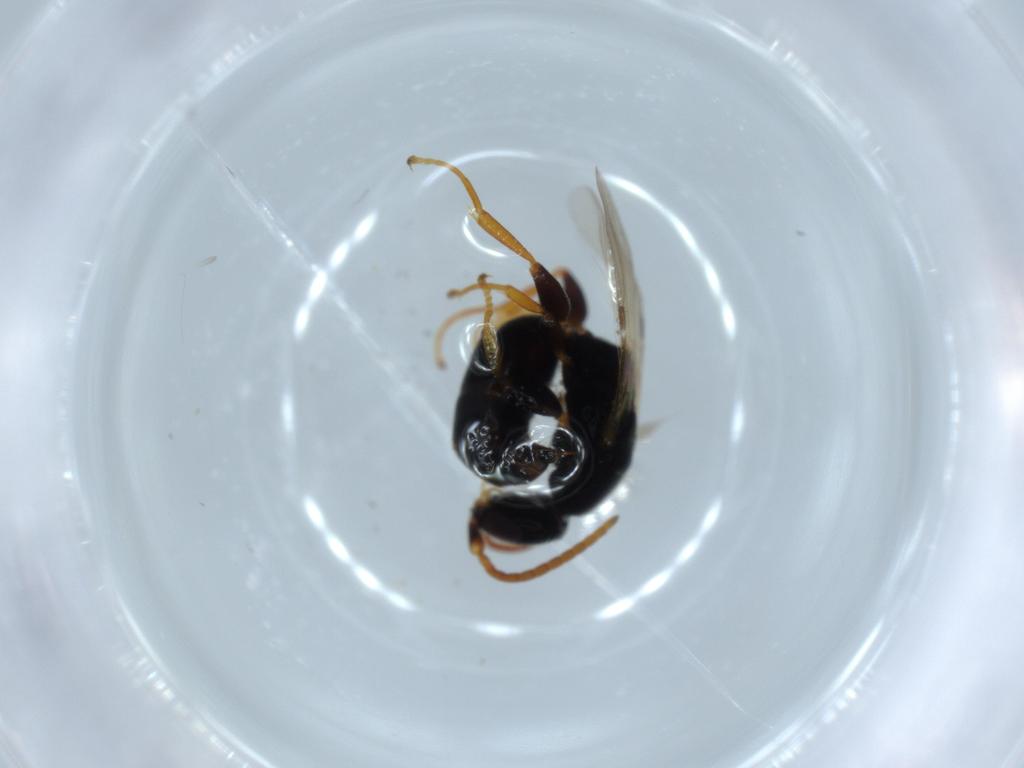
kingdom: Animalia
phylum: Arthropoda
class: Insecta
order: Hymenoptera
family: Bethylidae
